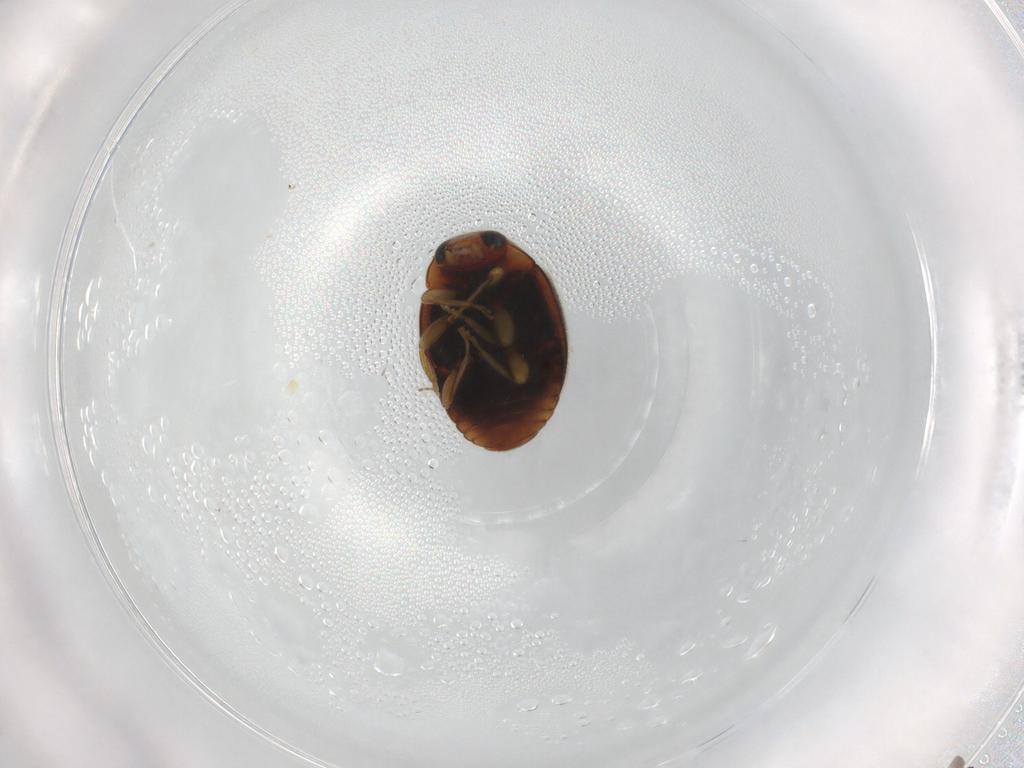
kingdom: Animalia
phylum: Arthropoda
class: Insecta
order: Coleoptera
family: Coccinellidae
